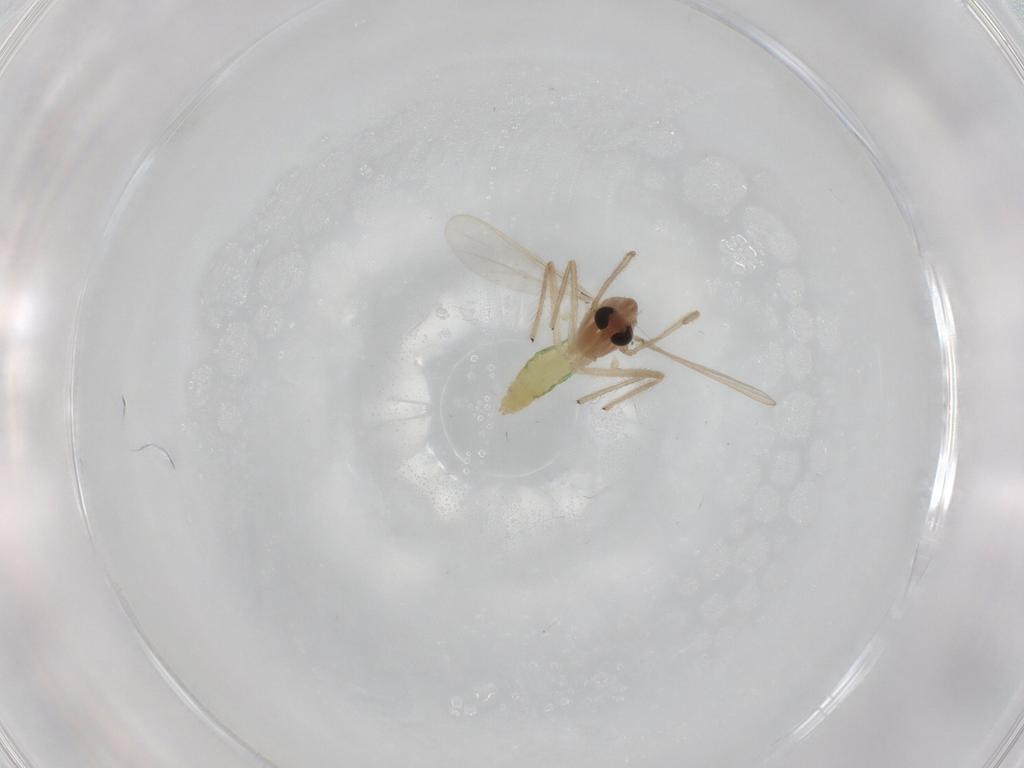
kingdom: Animalia
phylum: Arthropoda
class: Insecta
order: Diptera
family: Chironomidae
